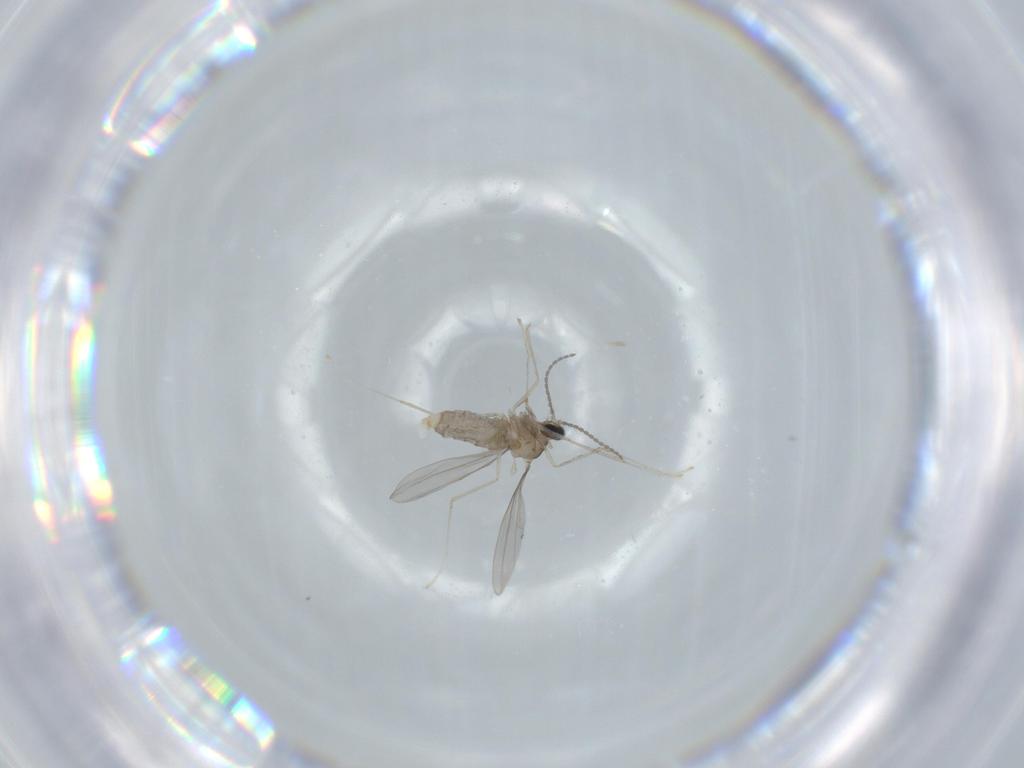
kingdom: Animalia
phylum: Arthropoda
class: Insecta
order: Diptera
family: Cecidomyiidae
